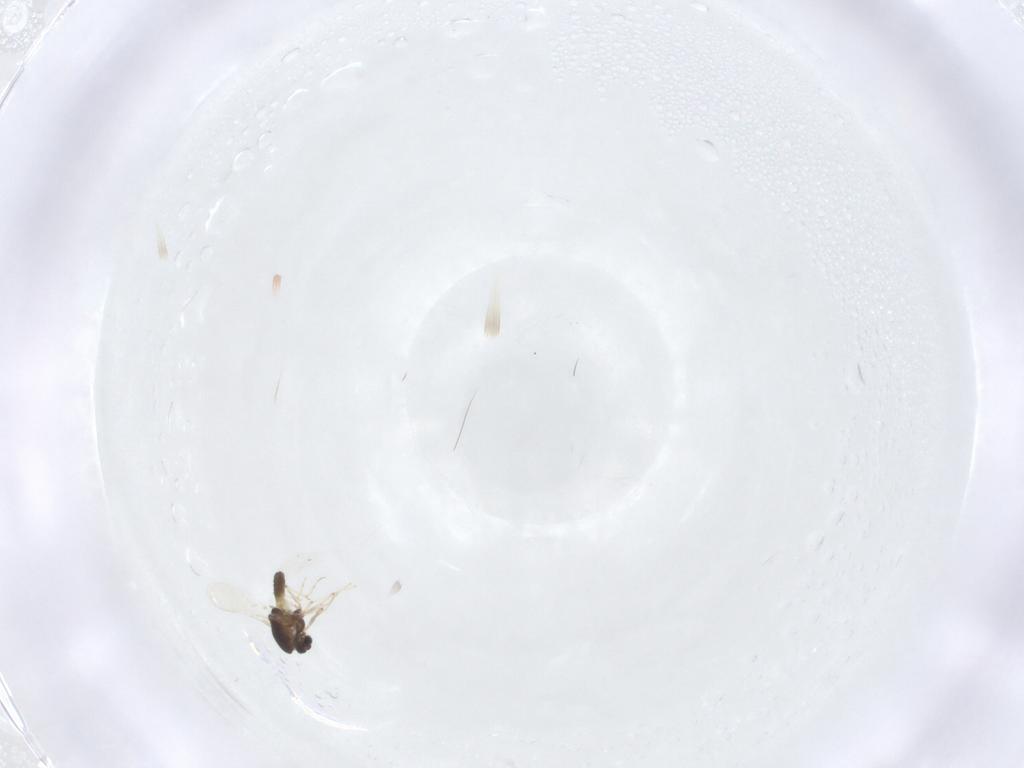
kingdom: Animalia
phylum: Arthropoda
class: Insecta
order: Diptera
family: Chironomidae
